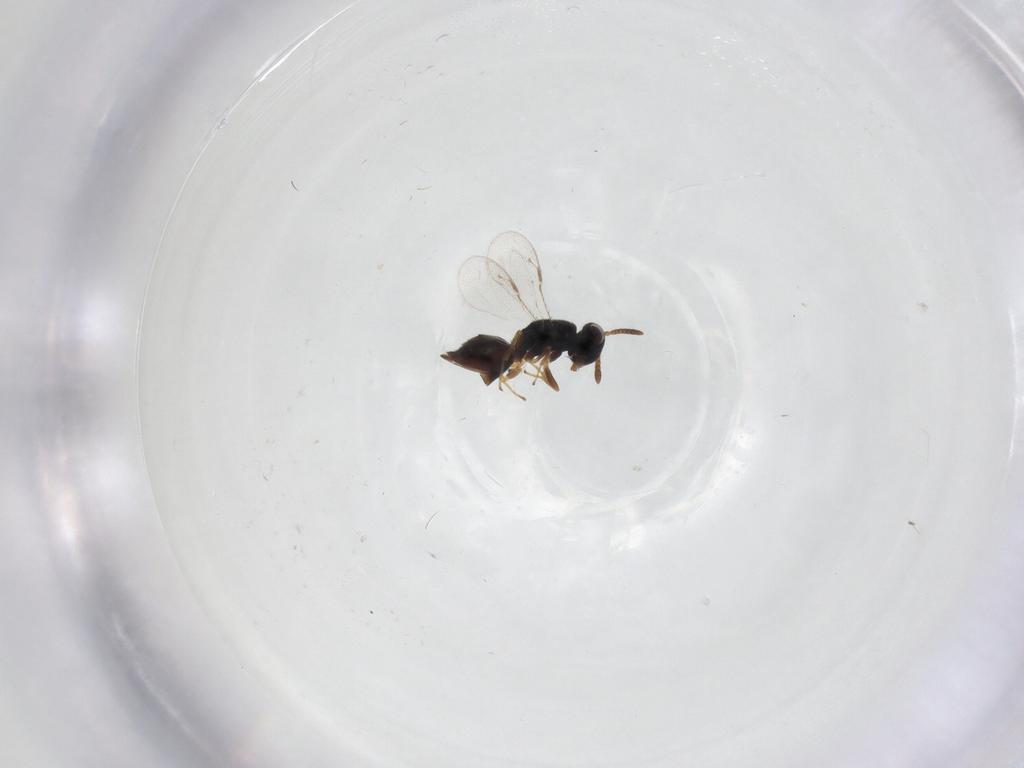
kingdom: Animalia
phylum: Arthropoda
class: Insecta
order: Hymenoptera
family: Pteromalidae
